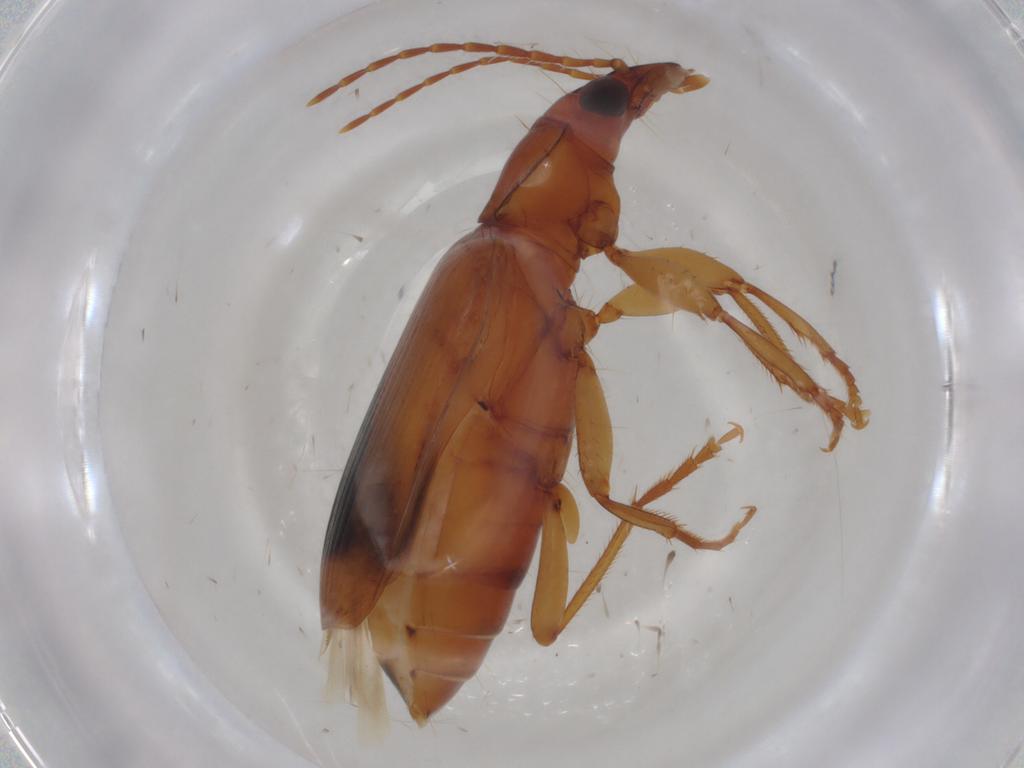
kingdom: Animalia
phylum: Arthropoda
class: Insecta
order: Coleoptera
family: Carabidae
